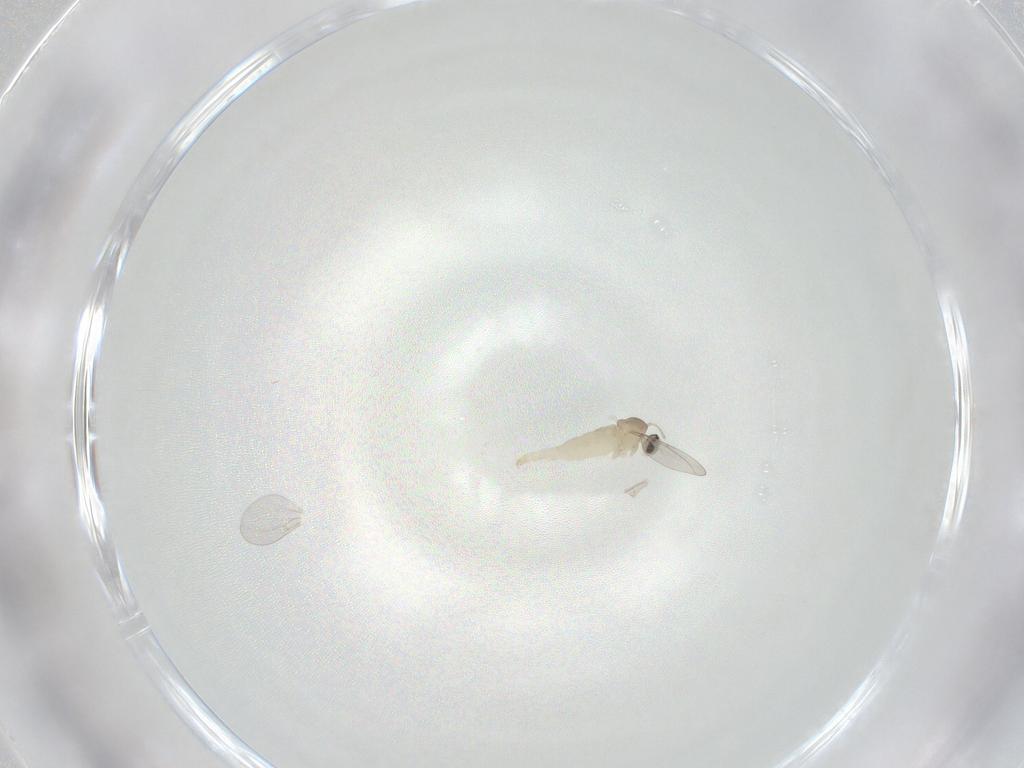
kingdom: Animalia
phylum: Arthropoda
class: Insecta
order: Diptera
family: Cecidomyiidae
